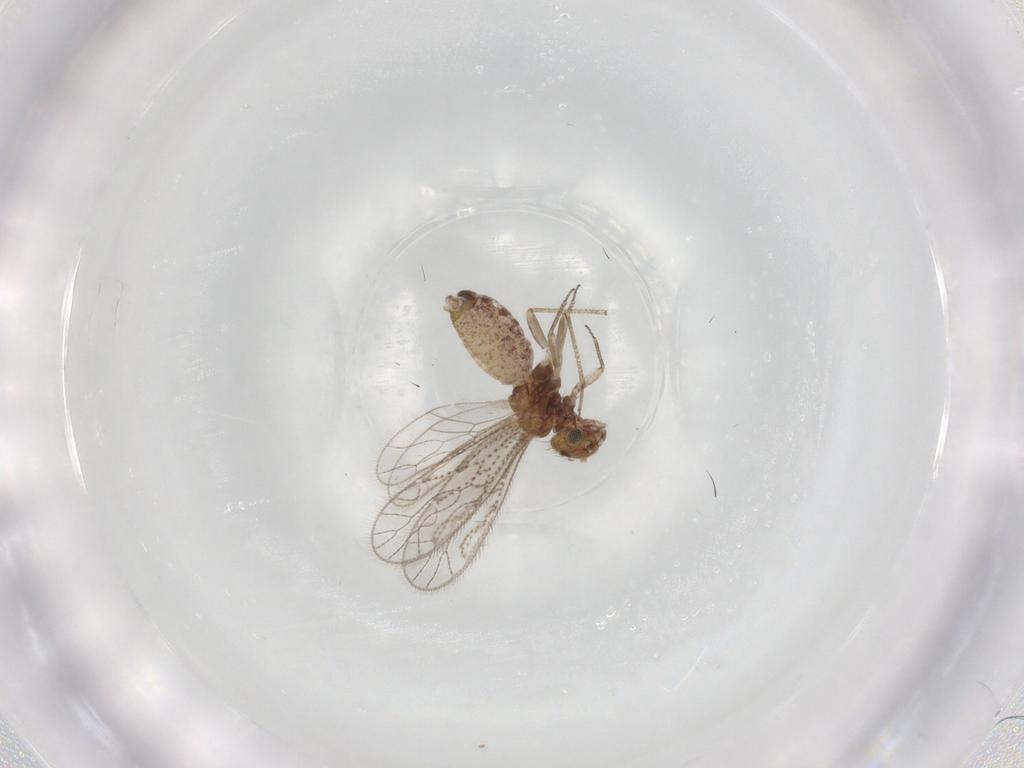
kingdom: Animalia
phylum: Arthropoda
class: Insecta
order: Psocodea
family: Cladiopsocidae
